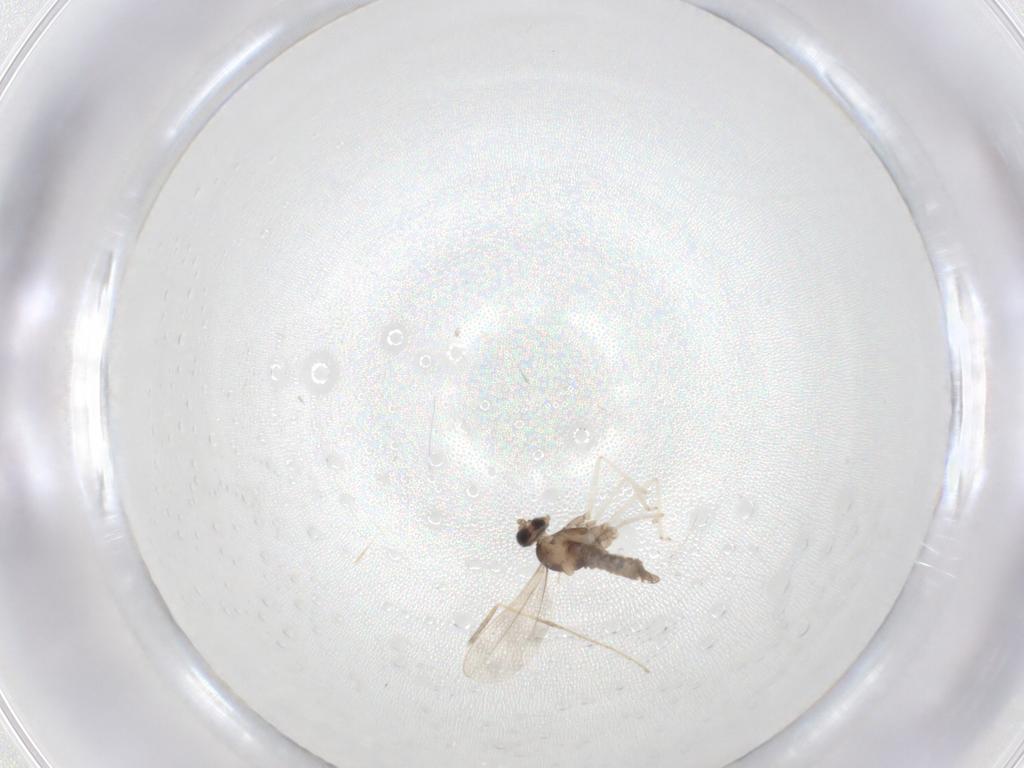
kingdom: Animalia
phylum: Arthropoda
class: Insecta
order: Diptera
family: Cecidomyiidae
